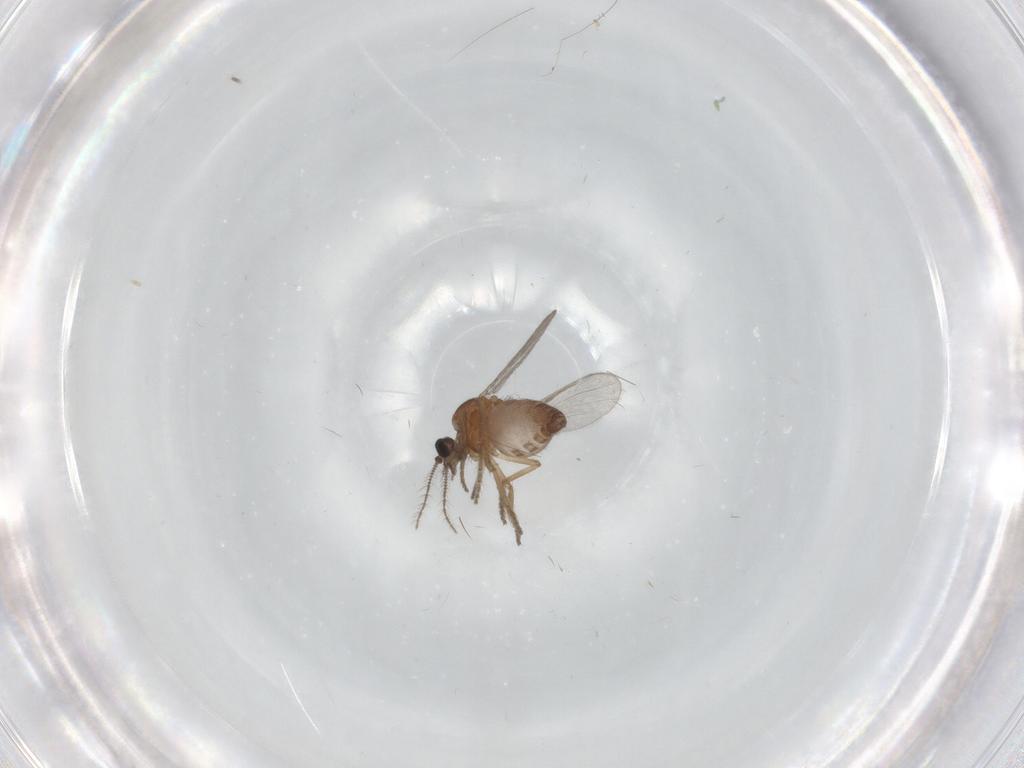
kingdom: Animalia
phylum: Arthropoda
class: Insecta
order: Diptera
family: Ceratopogonidae
